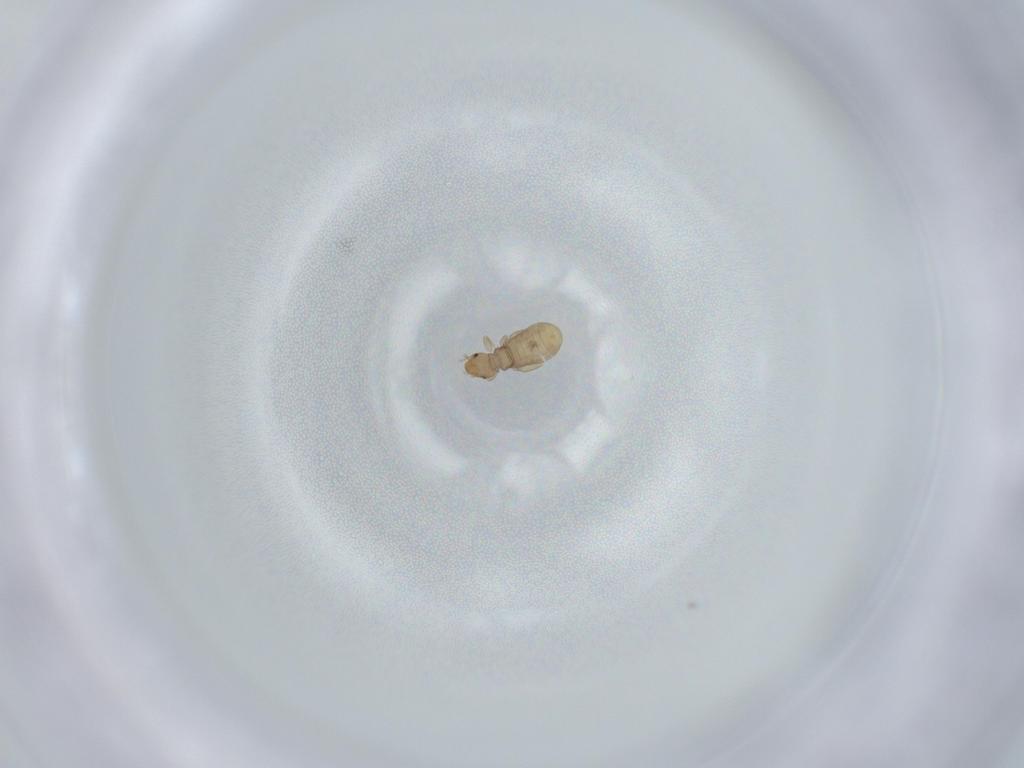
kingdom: Animalia
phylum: Arthropoda
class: Insecta
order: Psocodea
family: Liposcelididae
